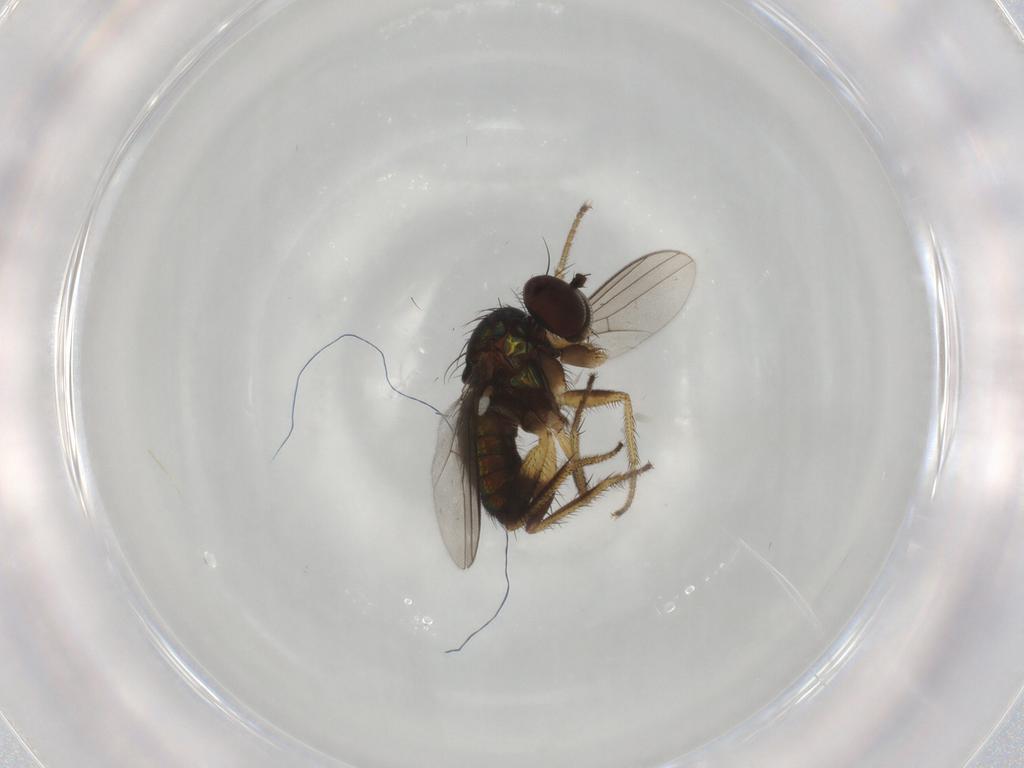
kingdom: Animalia
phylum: Arthropoda
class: Insecta
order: Diptera
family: Dolichopodidae
